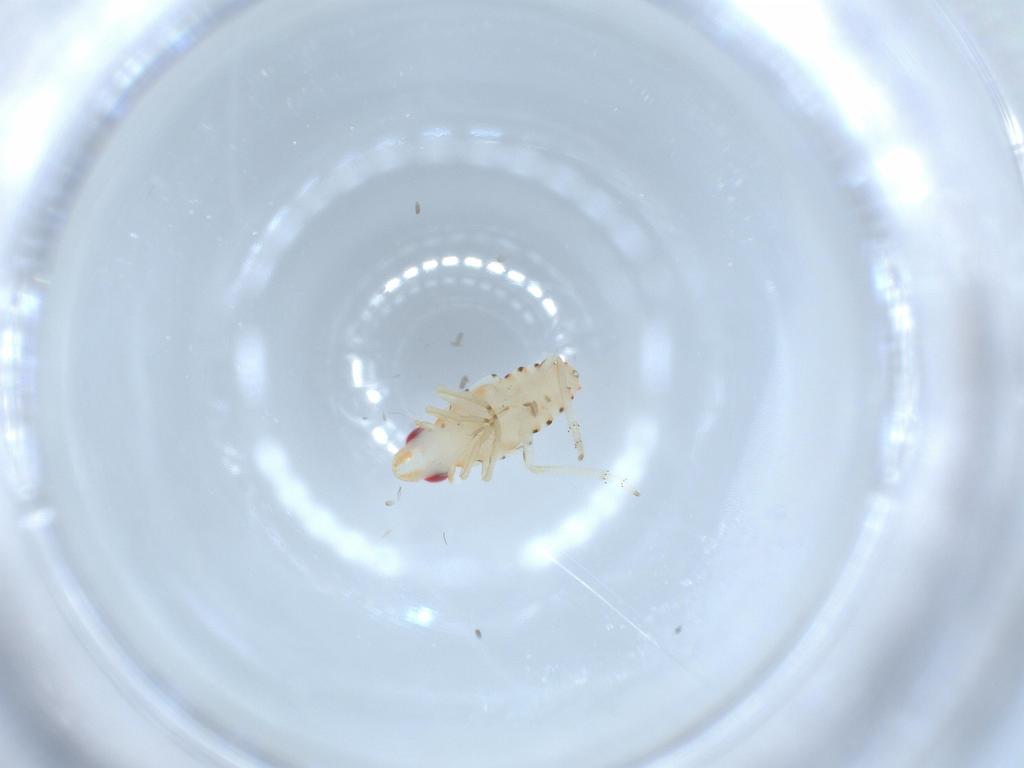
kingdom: Animalia
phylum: Arthropoda
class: Insecta
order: Hemiptera
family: Tropiduchidae
